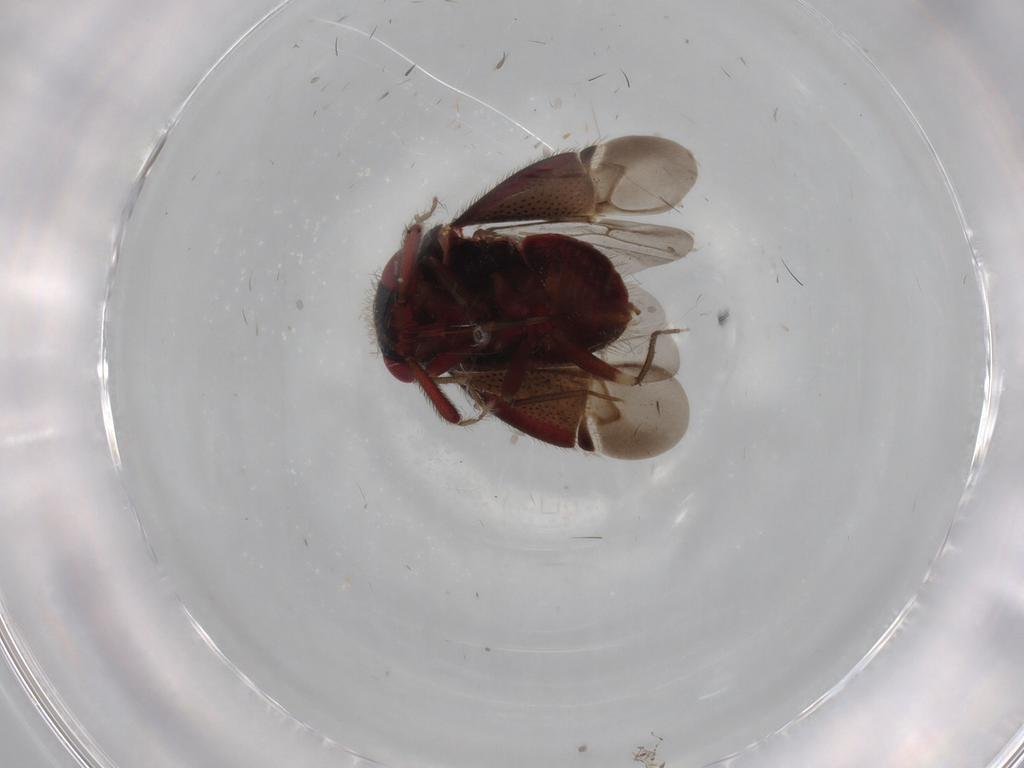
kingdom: Animalia
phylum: Arthropoda
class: Insecta
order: Hemiptera
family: Miridae
